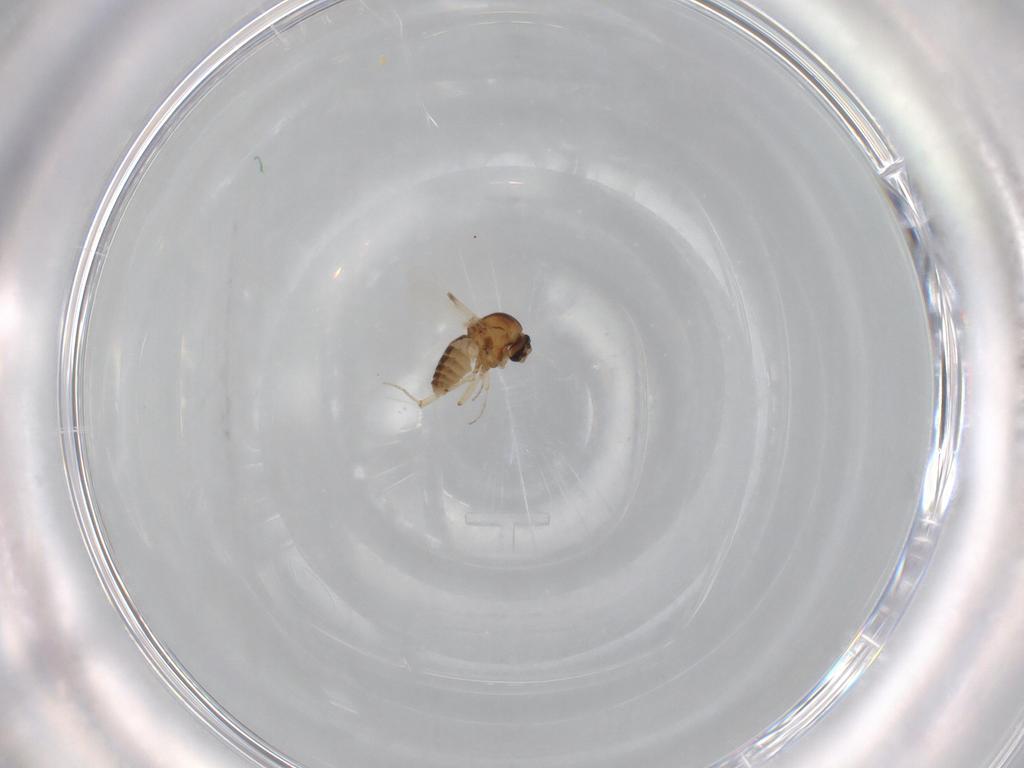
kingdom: Animalia
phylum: Arthropoda
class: Insecta
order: Diptera
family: Ceratopogonidae
